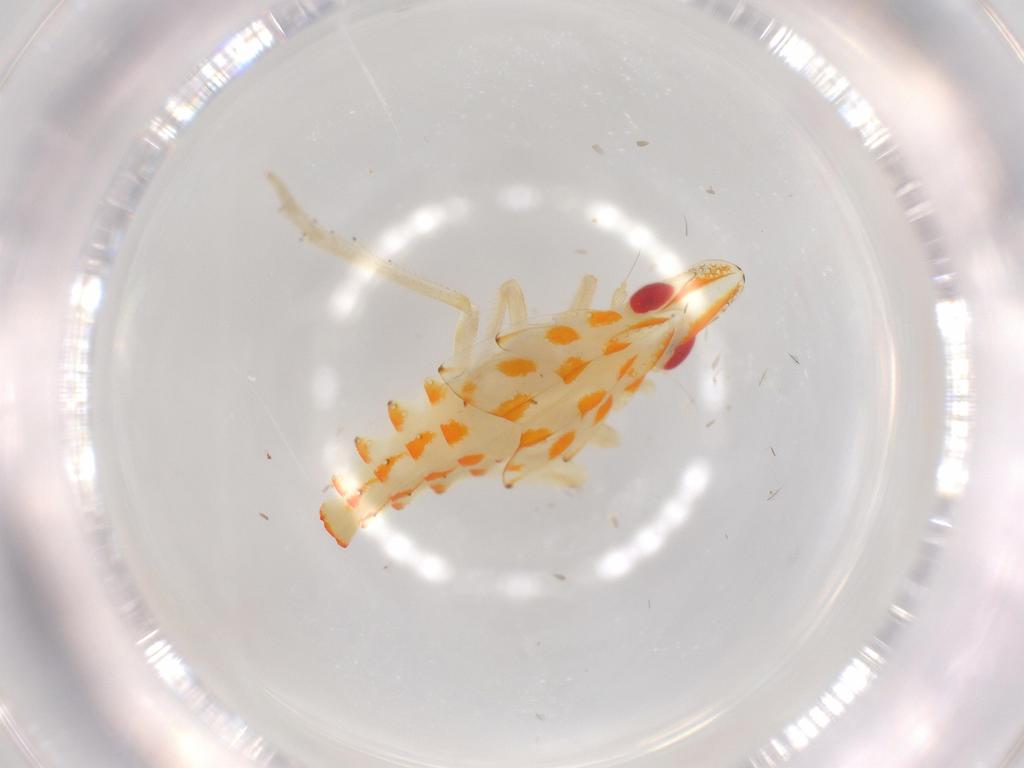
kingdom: Animalia
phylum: Arthropoda
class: Insecta
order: Hemiptera
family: Tropiduchidae
